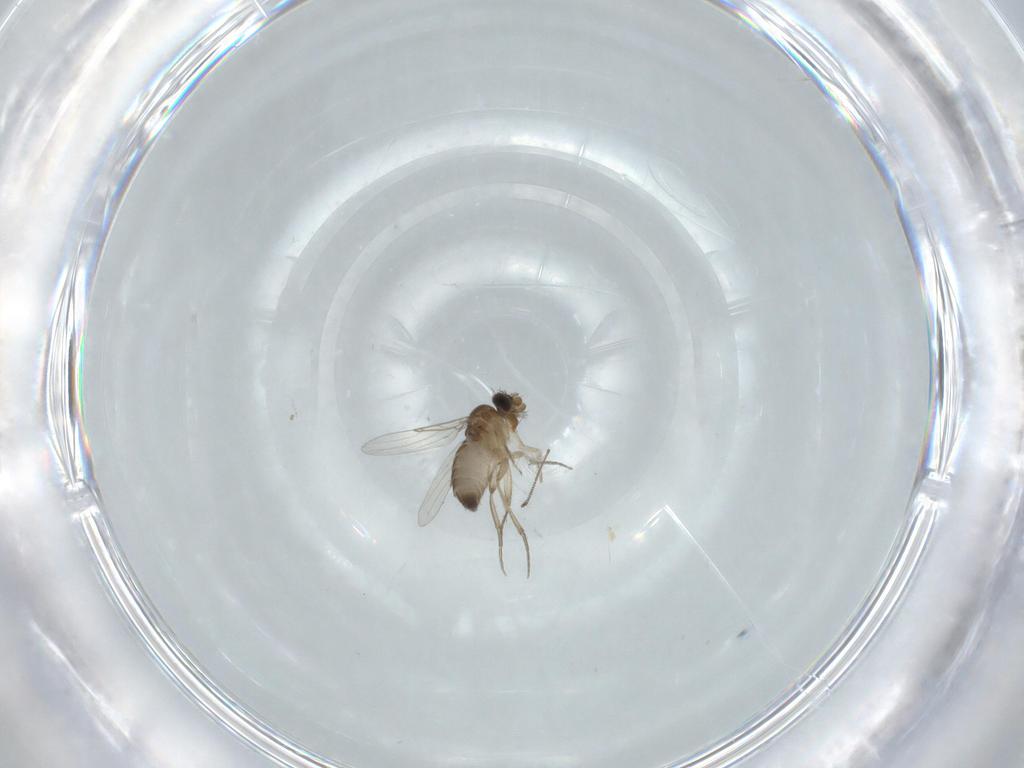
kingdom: Animalia
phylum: Arthropoda
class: Insecta
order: Diptera
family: Phoridae
